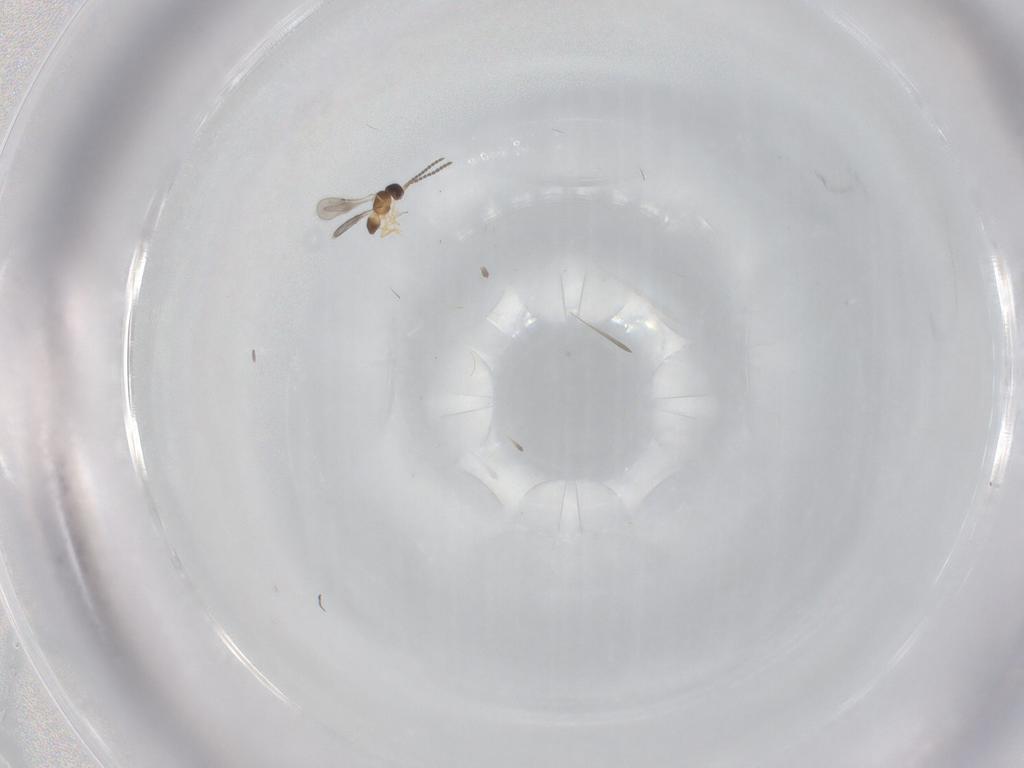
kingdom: Animalia
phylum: Arthropoda
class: Insecta
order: Hymenoptera
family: Ceraphronidae
